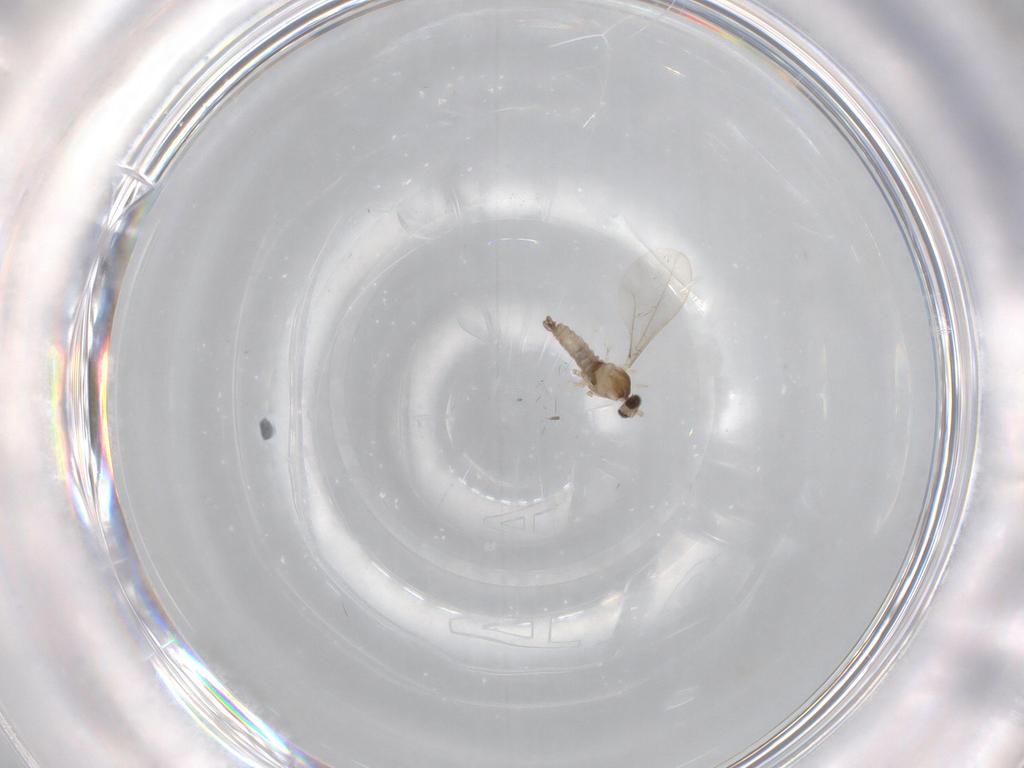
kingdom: Animalia
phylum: Arthropoda
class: Insecta
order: Diptera
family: Cecidomyiidae
